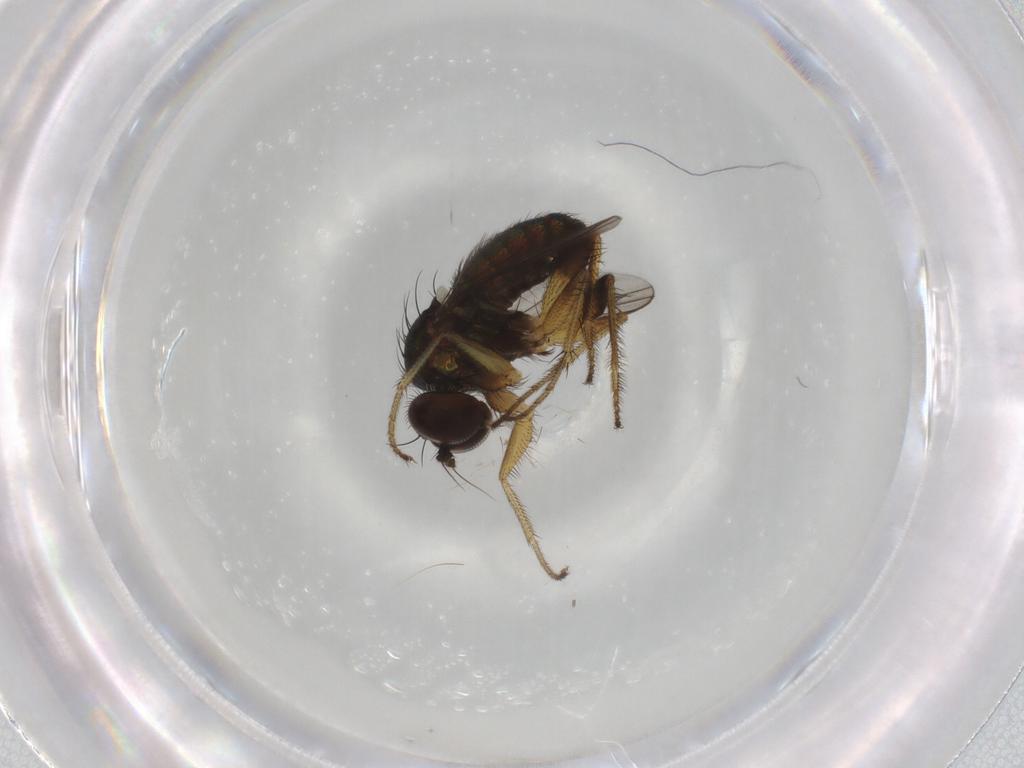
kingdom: Animalia
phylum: Arthropoda
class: Insecta
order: Diptera
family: Dolichopodidae
